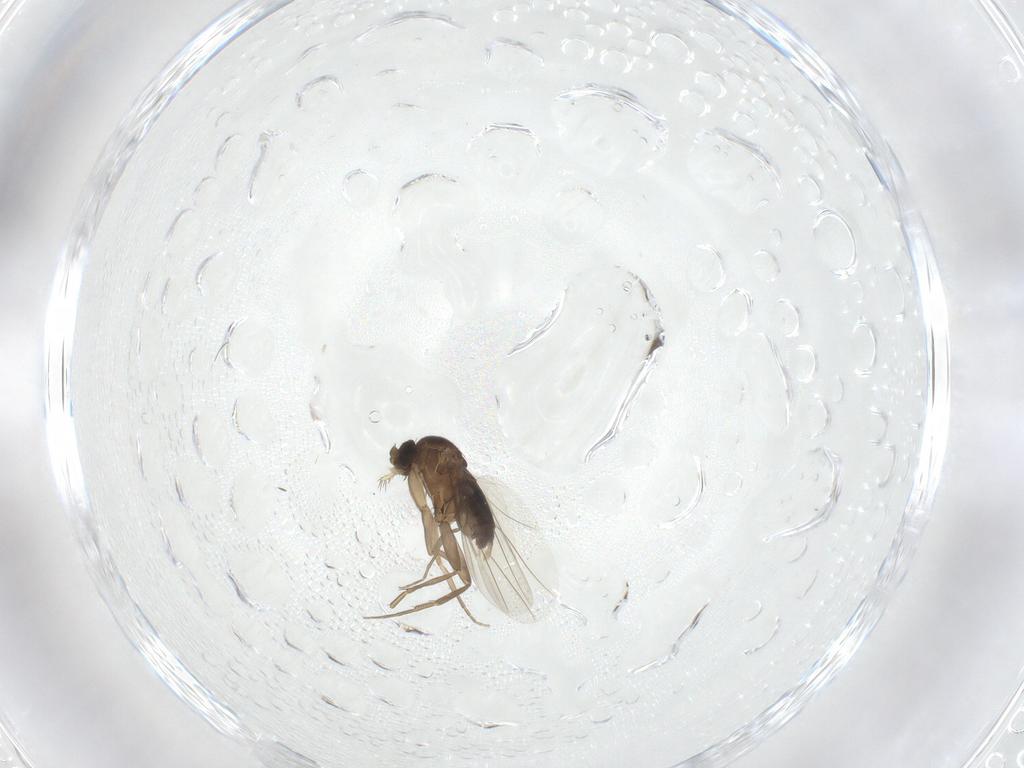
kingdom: Animalia
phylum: Arthropoda
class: Insecta
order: Diptera
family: Phoridae
